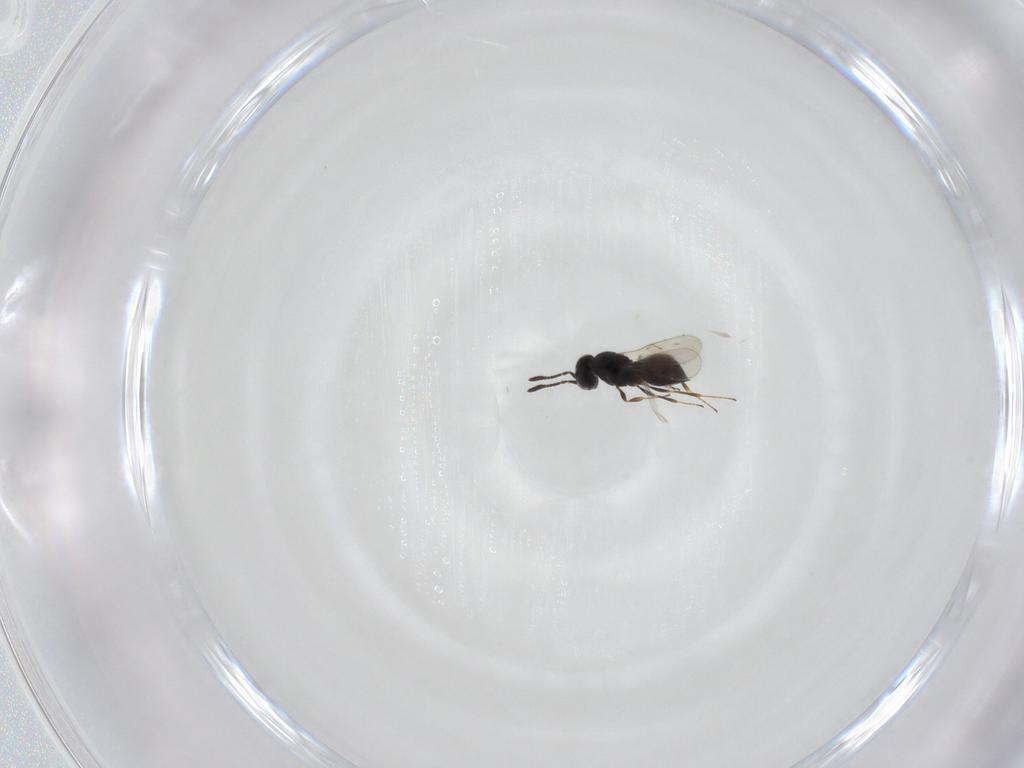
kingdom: Animalia
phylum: Arthropoda
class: Insecta
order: Hymenoptera
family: Scelionidae
